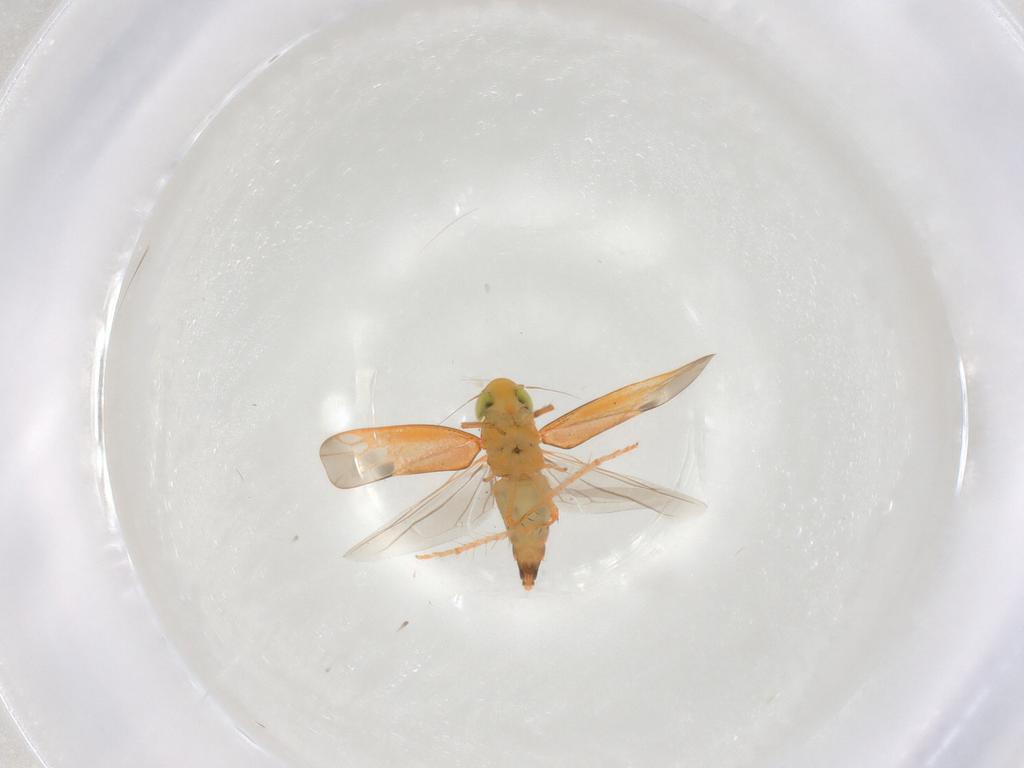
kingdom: Animalia
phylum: Arthropoda
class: Insecta
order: Hemiptera
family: Cicadellidae
